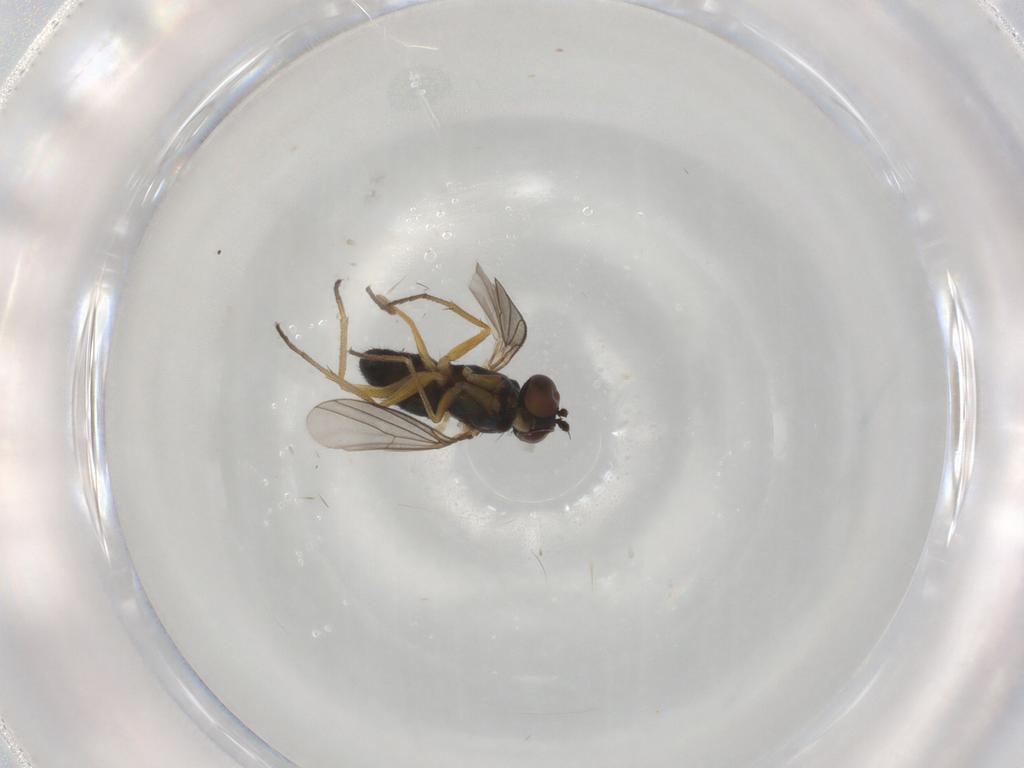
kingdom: Animalia
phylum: Arthropoda
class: Insecta
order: Diptera
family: Dolichopodidae
